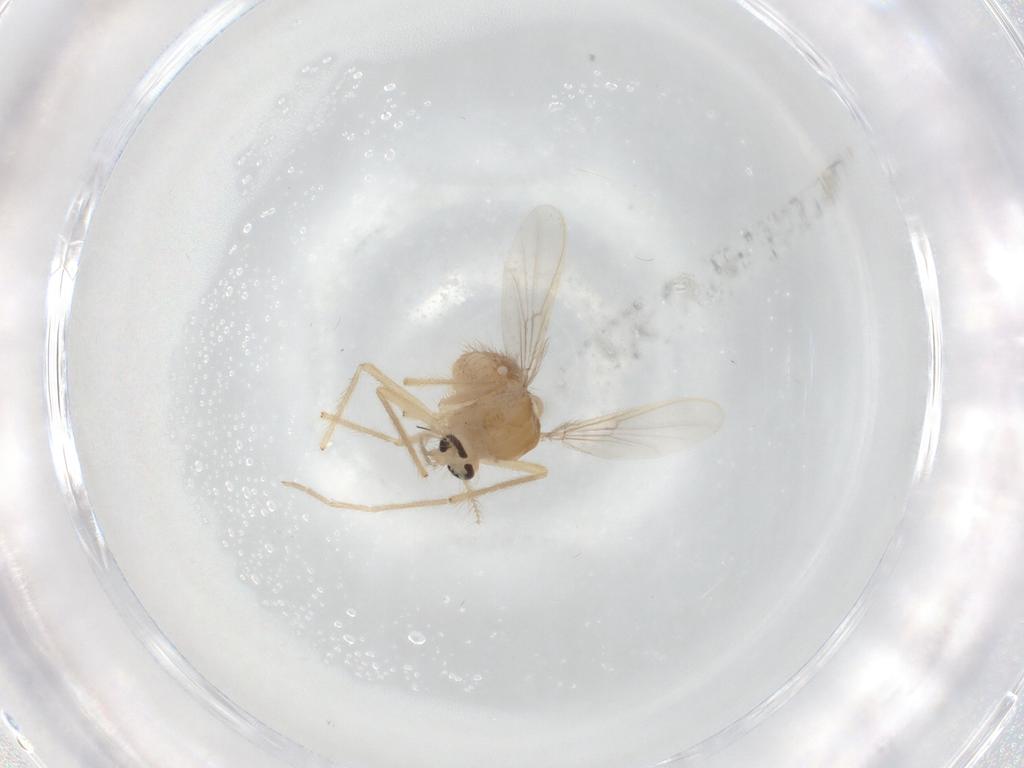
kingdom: Animalia
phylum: Arthropoda
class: Insecta
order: Diptera
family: Chironomidae
